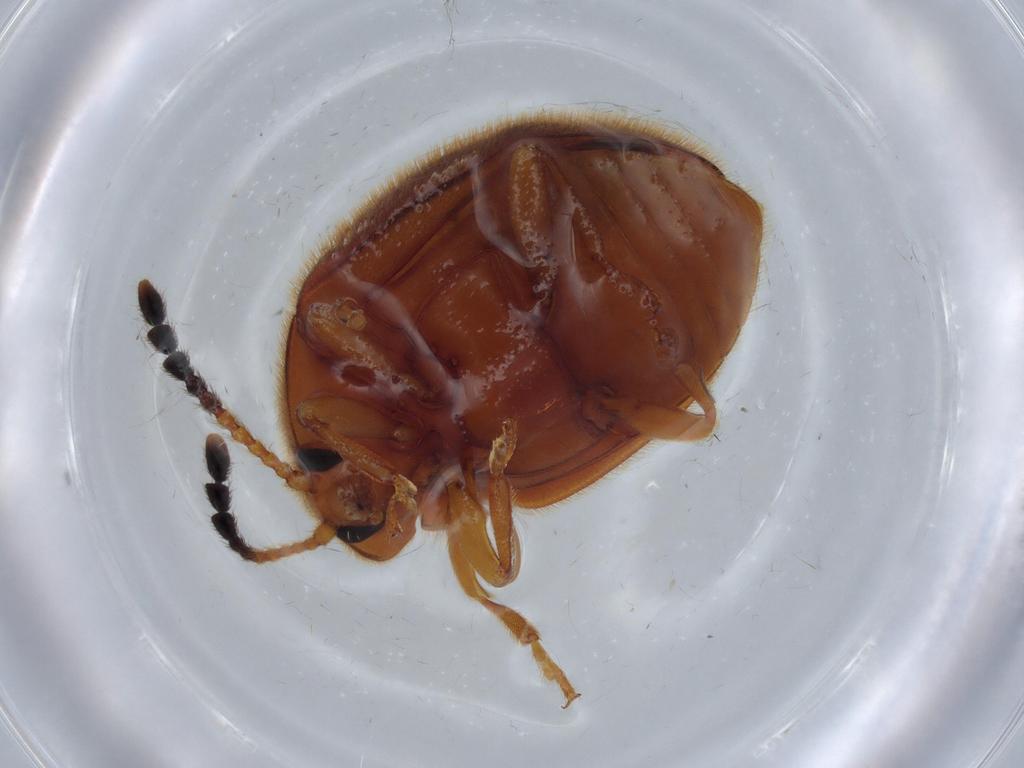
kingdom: Animalia
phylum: Arthropoda
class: Insecta
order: Coleoptera
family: Endomychidae
